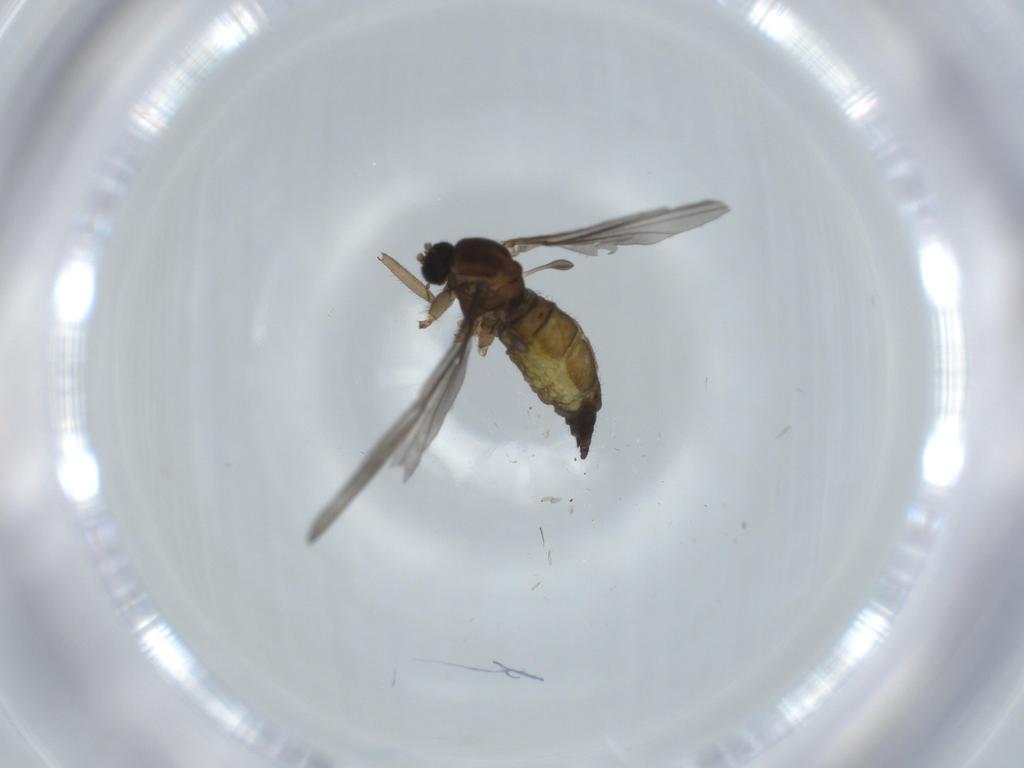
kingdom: Animalia
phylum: Arthropoda
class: Insecta
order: Diptera
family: Sciaridae
